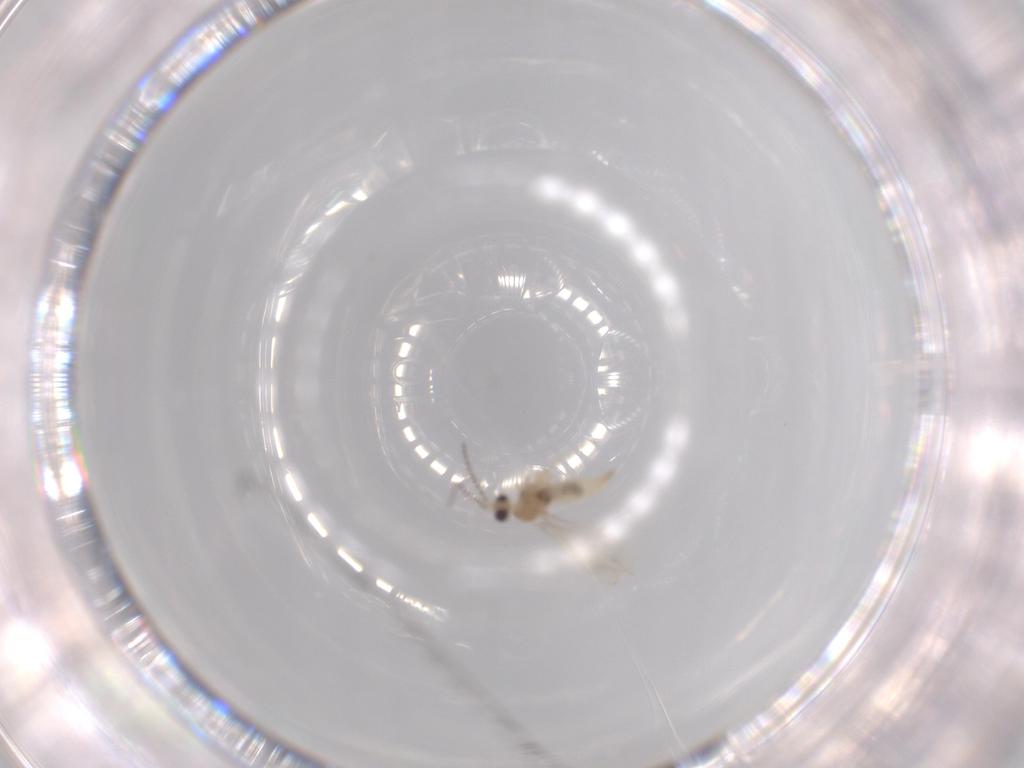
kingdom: Animalia
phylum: Arthropoda
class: Insecta
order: Diptera
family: Cecidomyiidae
